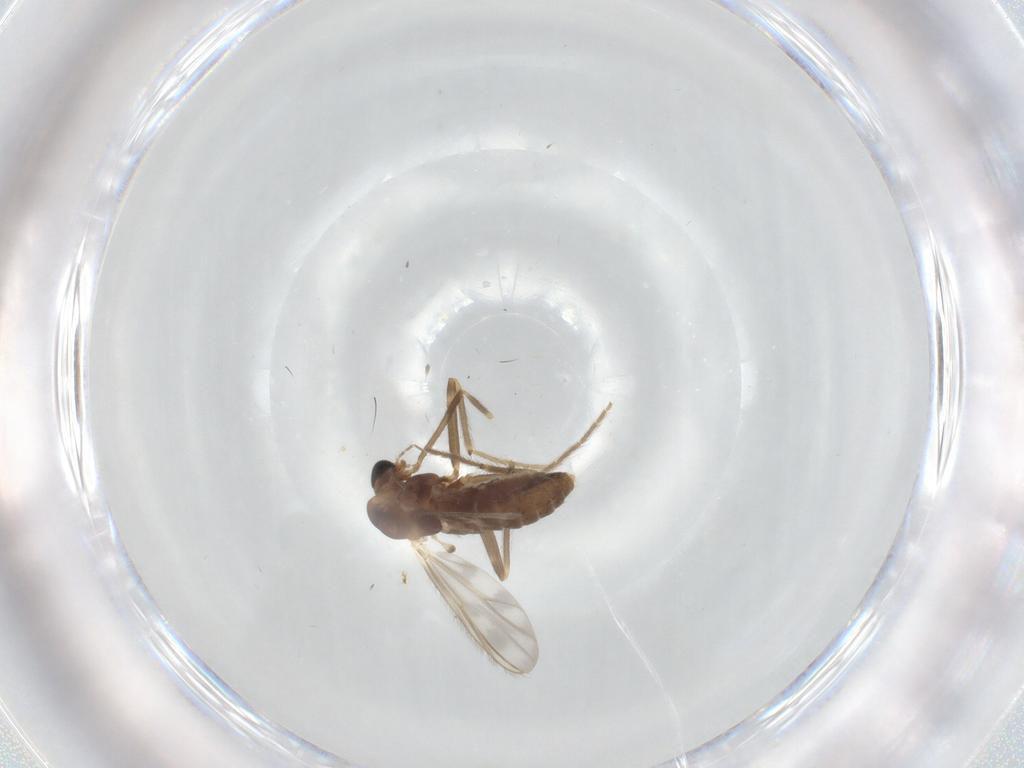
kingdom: Animalia
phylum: Arthropoda
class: Insecta
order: Diptera
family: Chironomidae
